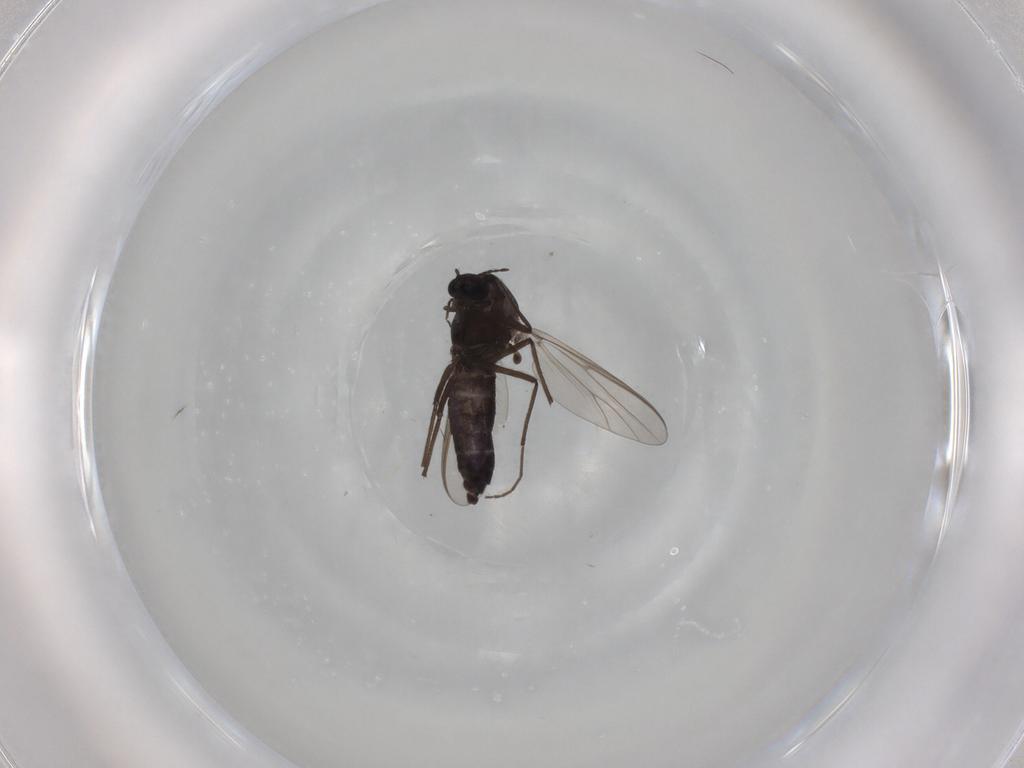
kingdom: Animalia
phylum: Arthropoda
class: Insecta
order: Diptera
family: Chironomidae
